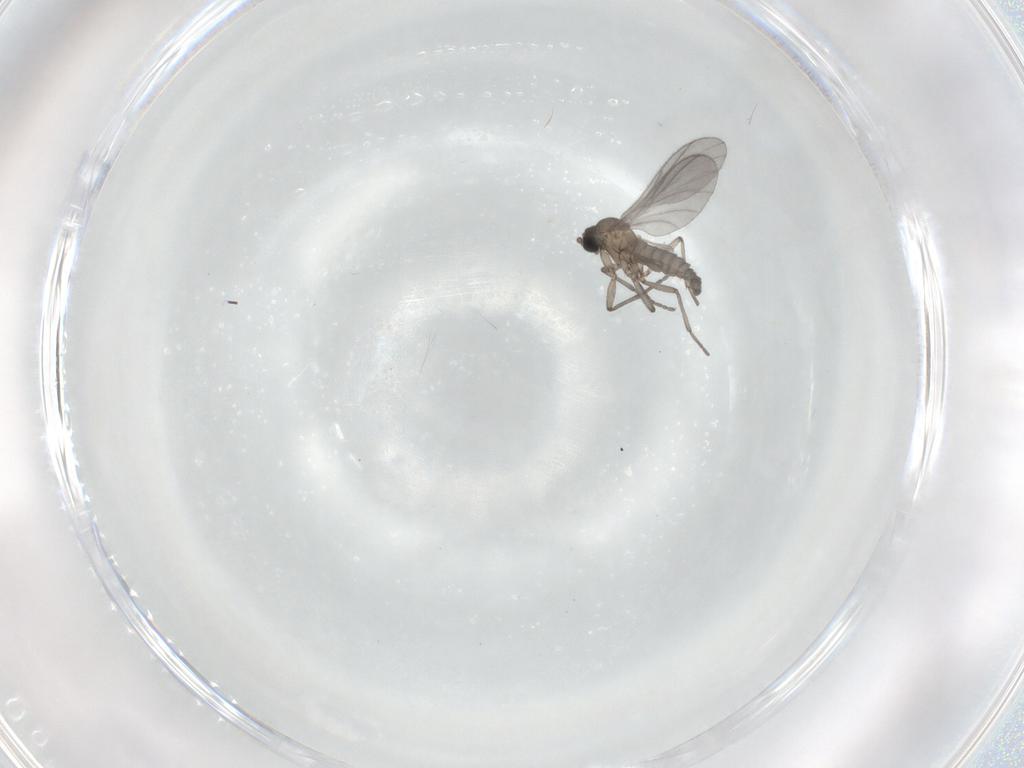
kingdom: Animalia
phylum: Arthropoda
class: Insecta
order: Diptera
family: Sciaridae
